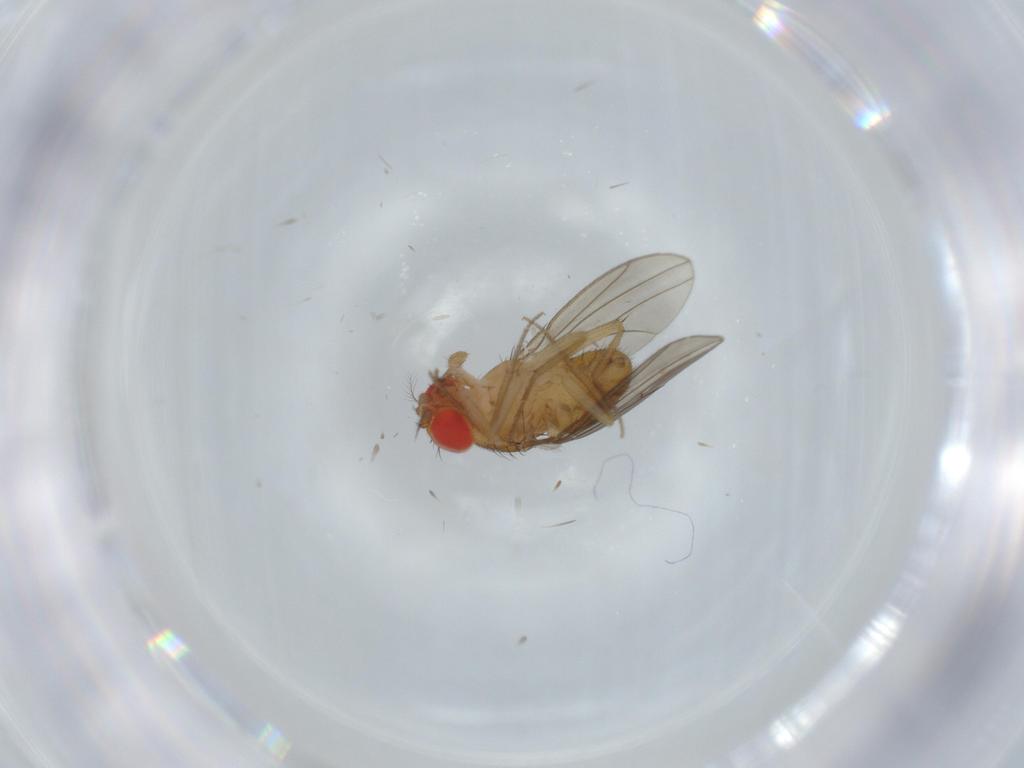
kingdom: Animalia
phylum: Arthropoda
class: Insecta
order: Diptera
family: Drosophilidae
